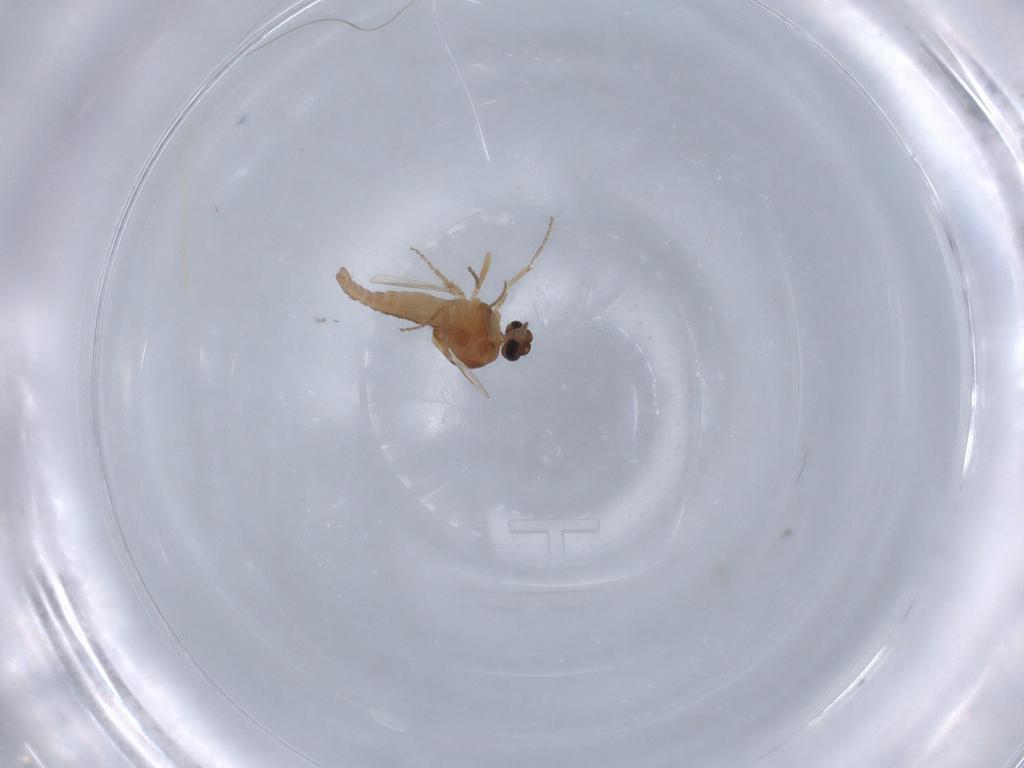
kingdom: Animalia
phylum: Arthropoda
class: Insecta
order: Diptera
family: Ceratopogonidae
